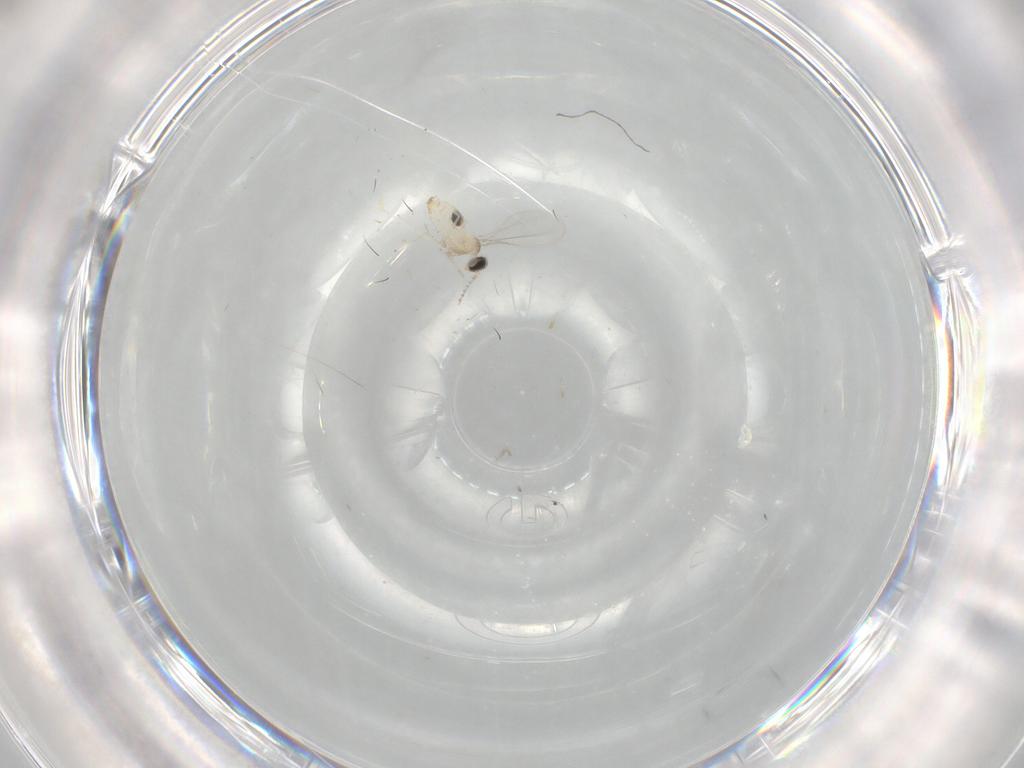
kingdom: Animalia
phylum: Arthropoda
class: Insecta
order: Diptera
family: Cecidomyiidae
